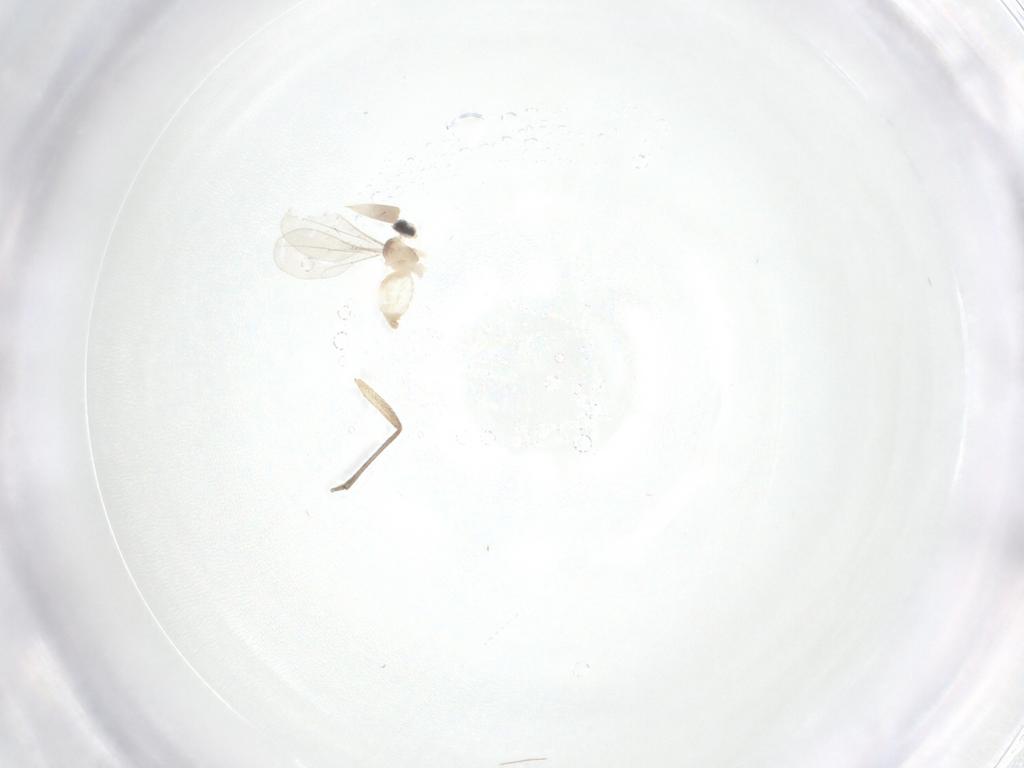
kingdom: Animalia
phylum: Arthropoda
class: Insecta
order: Diptera
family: Sciaridae
